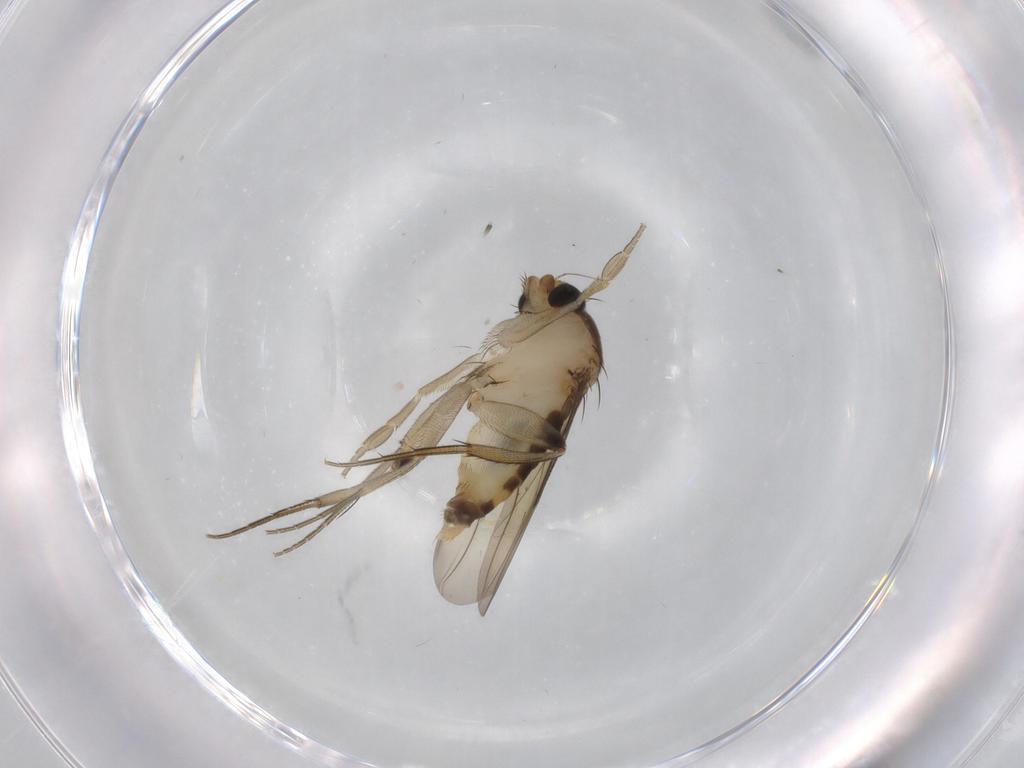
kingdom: Animalia
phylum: Arthropoda
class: Insecta
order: Diptera
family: Phoridae
